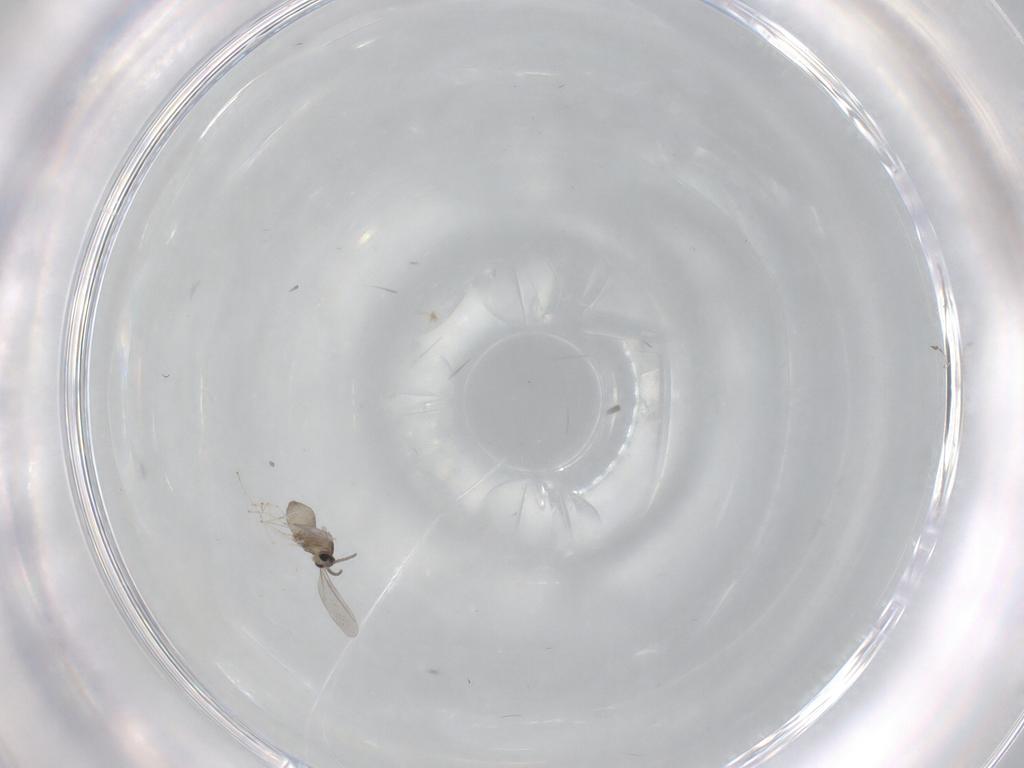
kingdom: Animalia
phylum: Arthropoda
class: Insecta
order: Diptera
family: Cecidomyiidae
